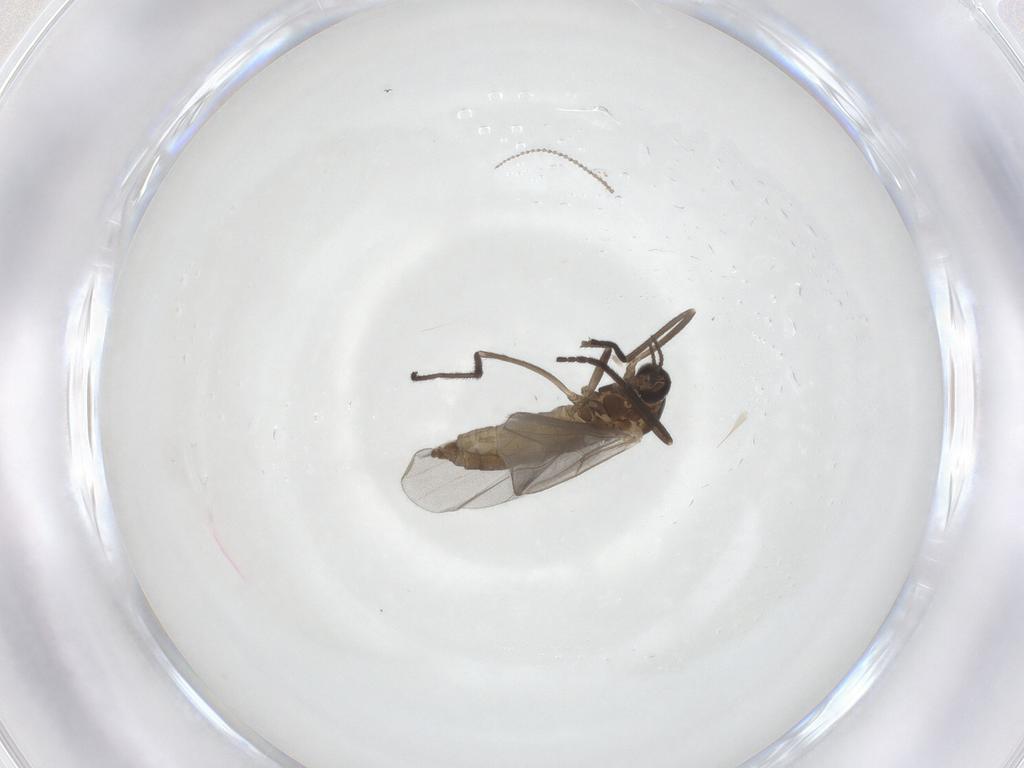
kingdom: Animalia
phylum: Arthropoda
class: Insecta
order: Diptera
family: Cecidomyiidae
